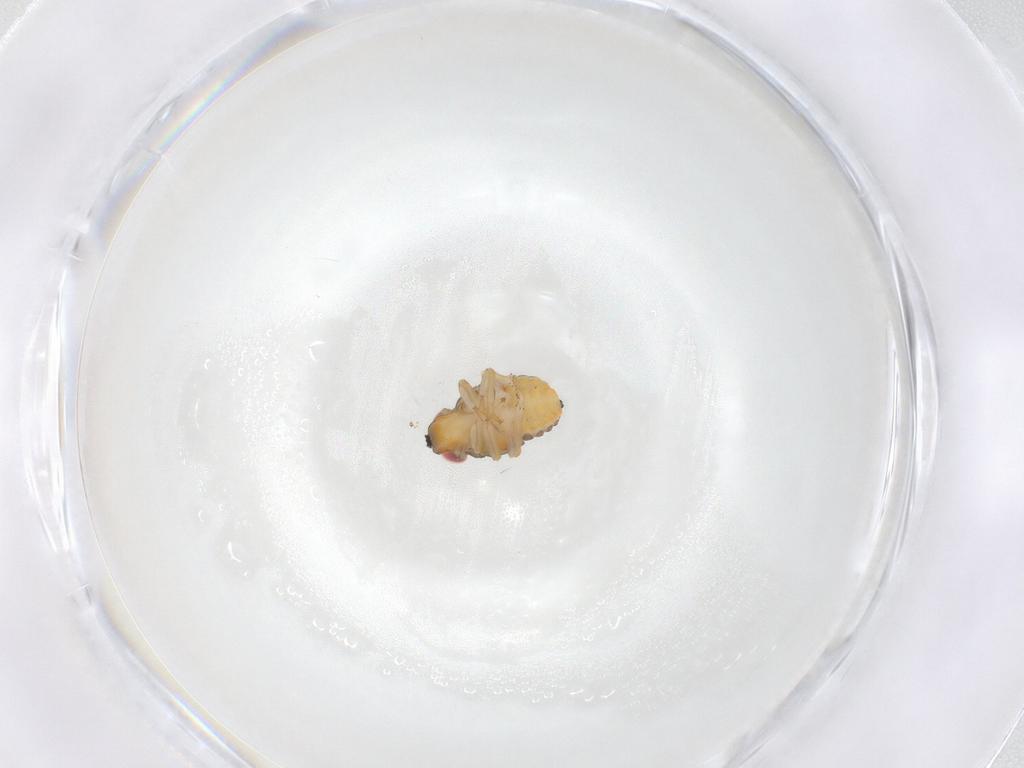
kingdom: Animalia
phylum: Arthropoda
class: Insecta
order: Hemiptera
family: Issidae
